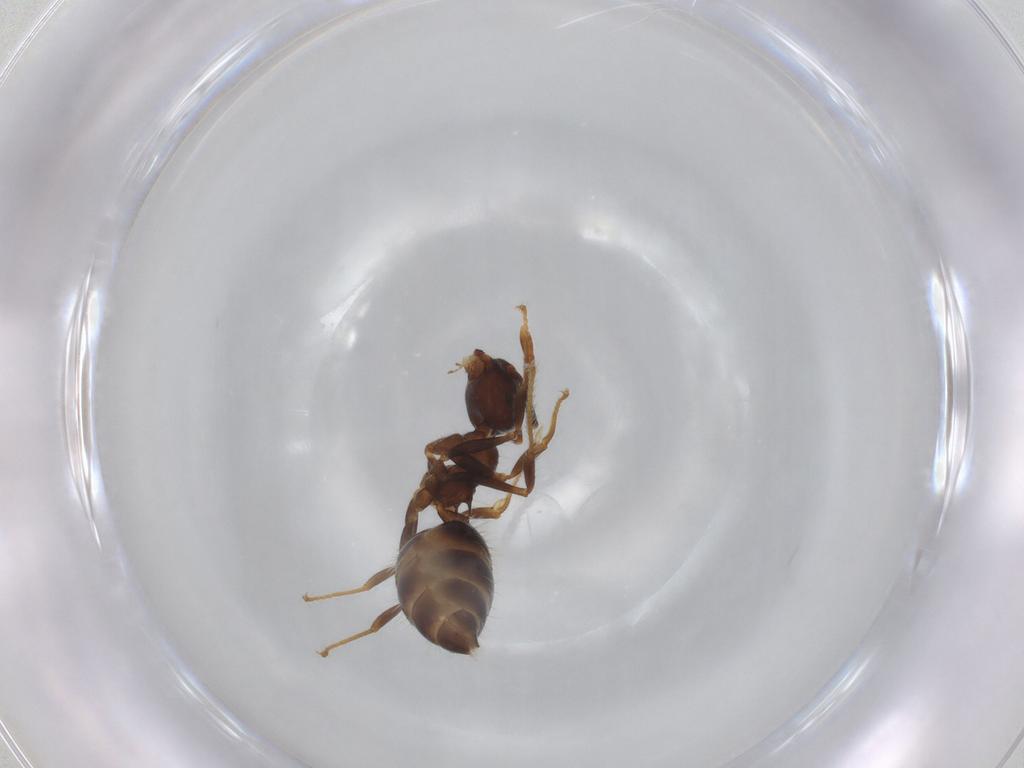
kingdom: Animalia
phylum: Arthropoda
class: Insecta
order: Hymenoptera
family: Formicidae
